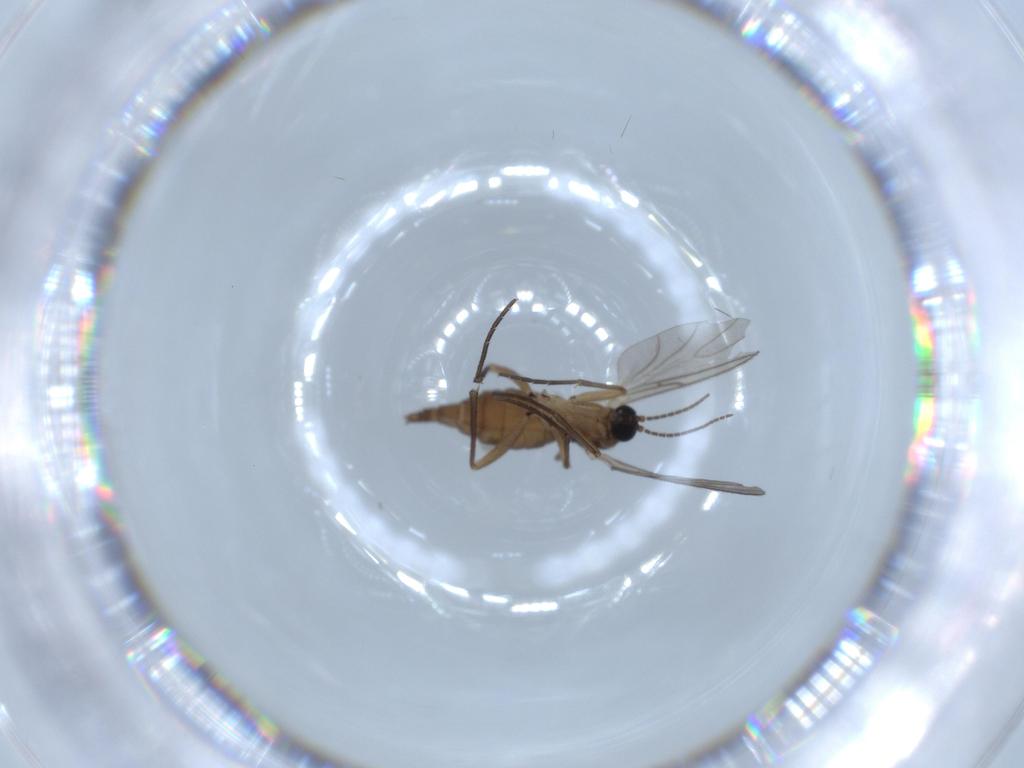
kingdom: Animalia
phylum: Arthropoda
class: Insecta
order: Diptera
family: Sciaridae
